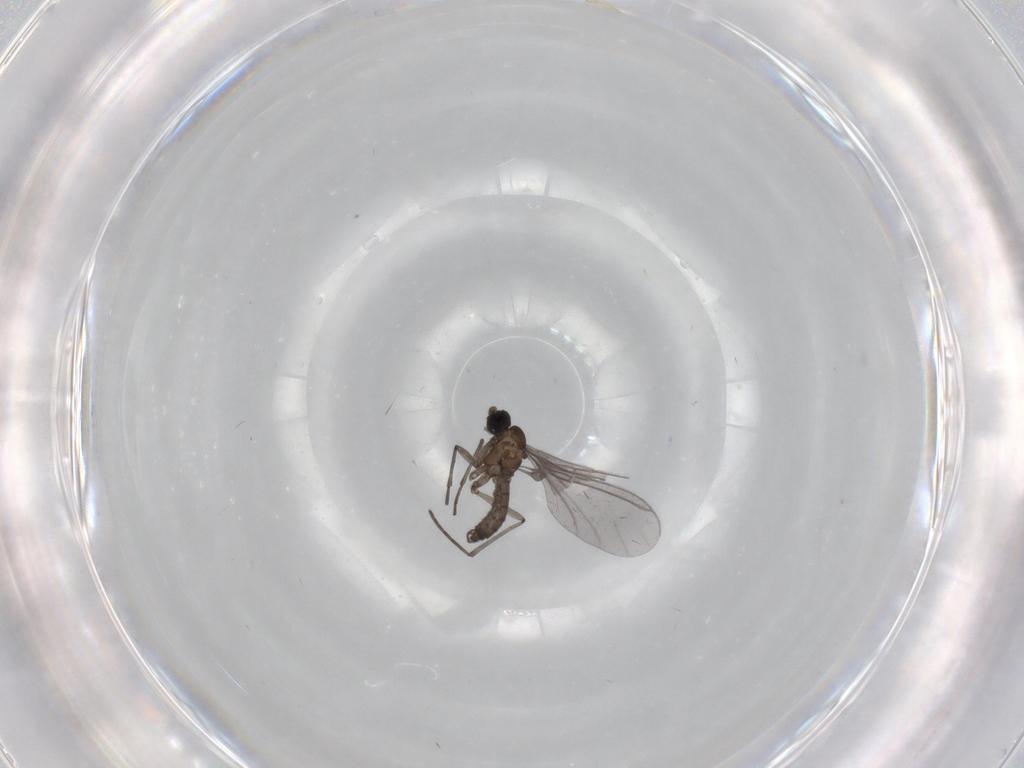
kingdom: Animalia
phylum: Arthropoda
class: Insecta
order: Diptera
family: Sciaridae
